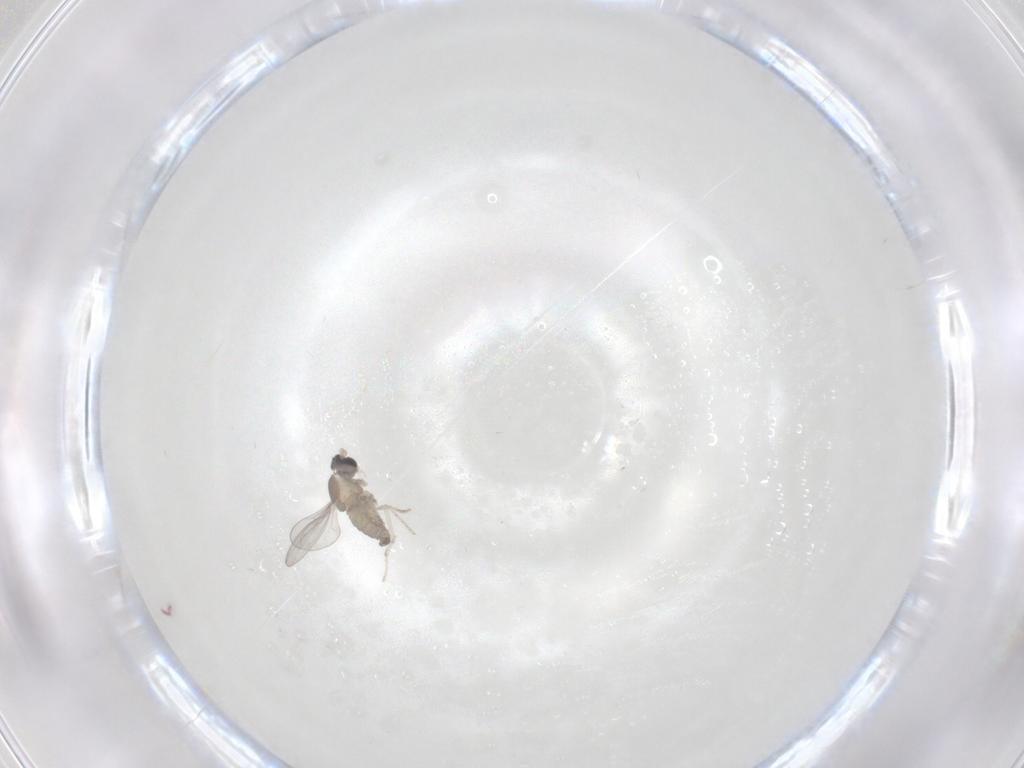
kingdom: Animalia
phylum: Arthropoda
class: Insecta
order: Diptera
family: Cecidomyiidae
